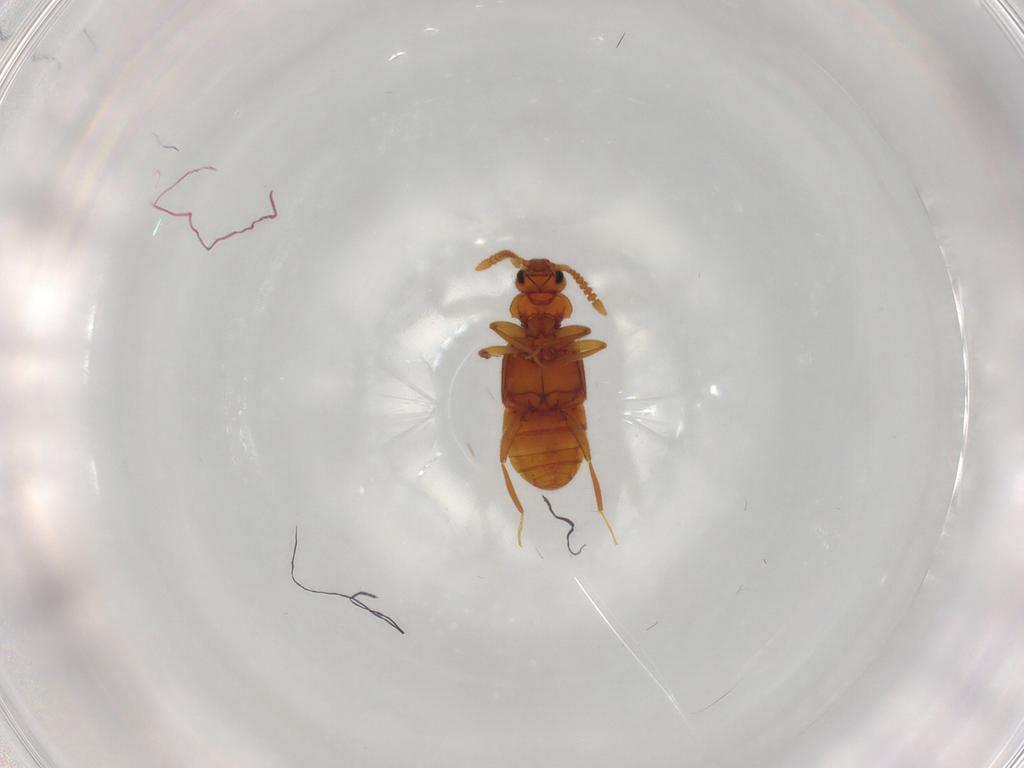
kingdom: Animalia
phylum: Arthropoda
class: Insecta
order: Coleoptera
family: Staphylinidae
